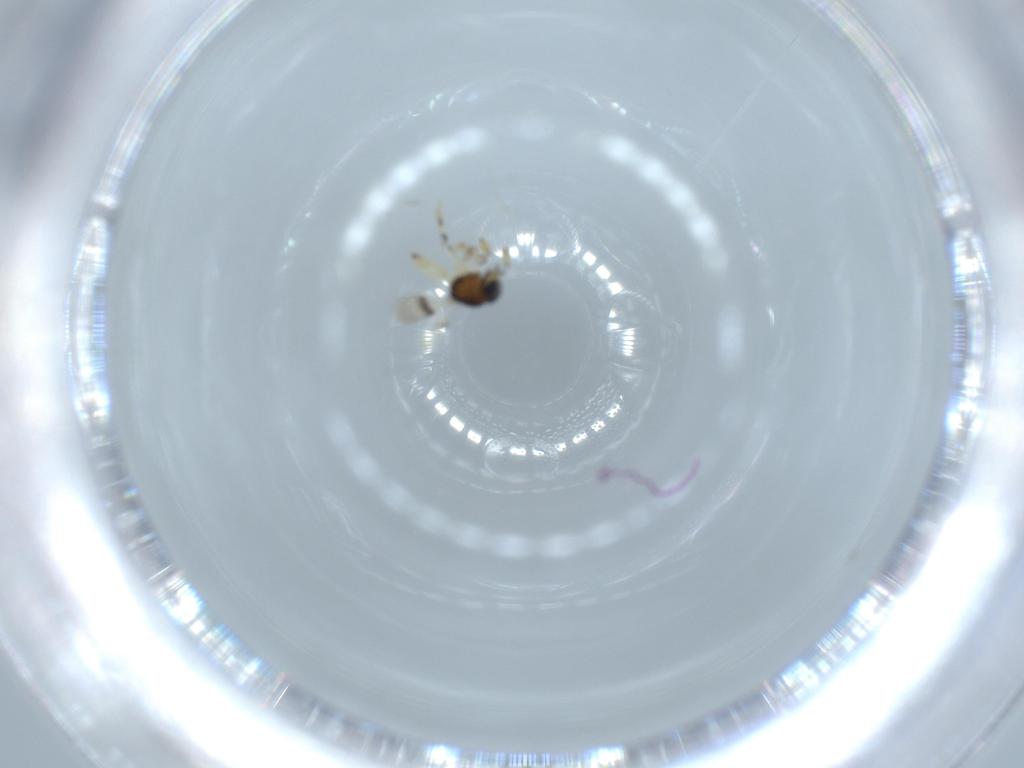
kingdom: Animalia
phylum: Arthropoda
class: Insecta
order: Hymenoptera
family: Scelionidae
